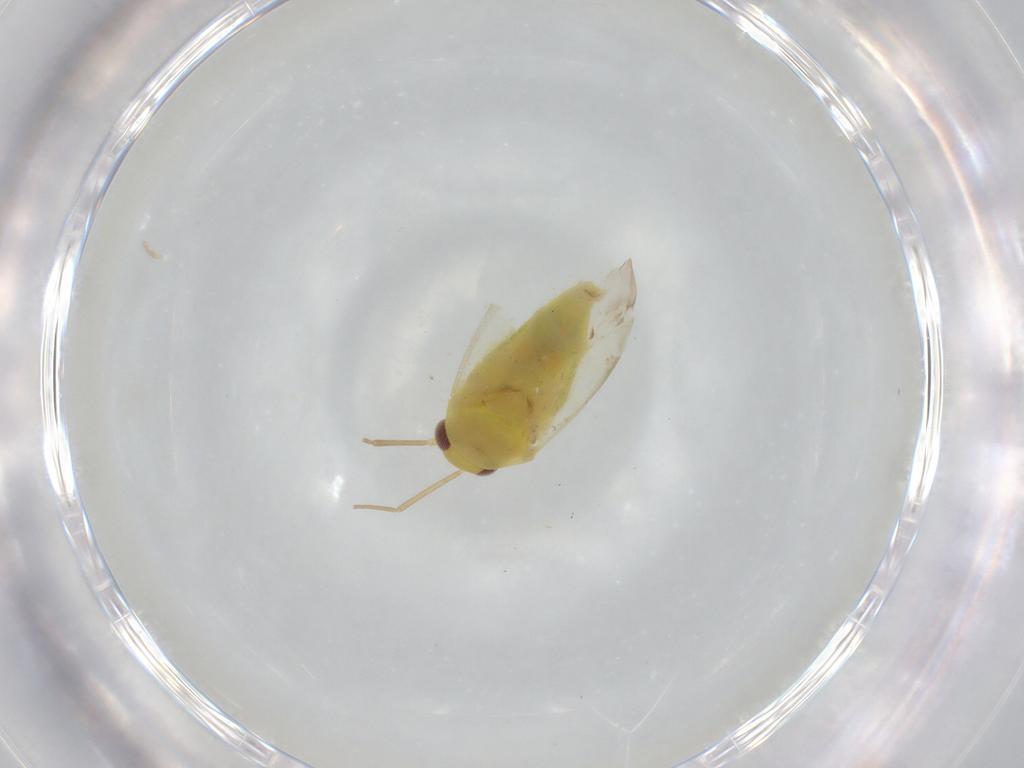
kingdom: Animalia
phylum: Arthropoda
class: Insecta
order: Hemiptera
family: Miridae
